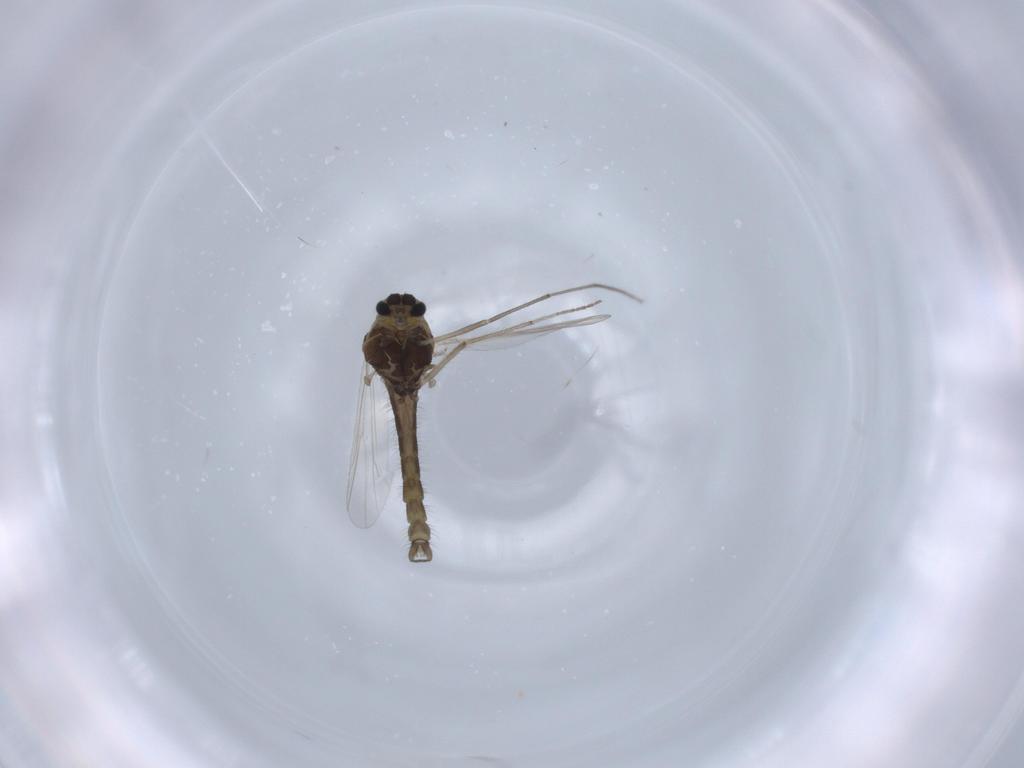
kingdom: Animalia
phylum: Arthropoda
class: Insecta
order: Diptera
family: Chironomidae
